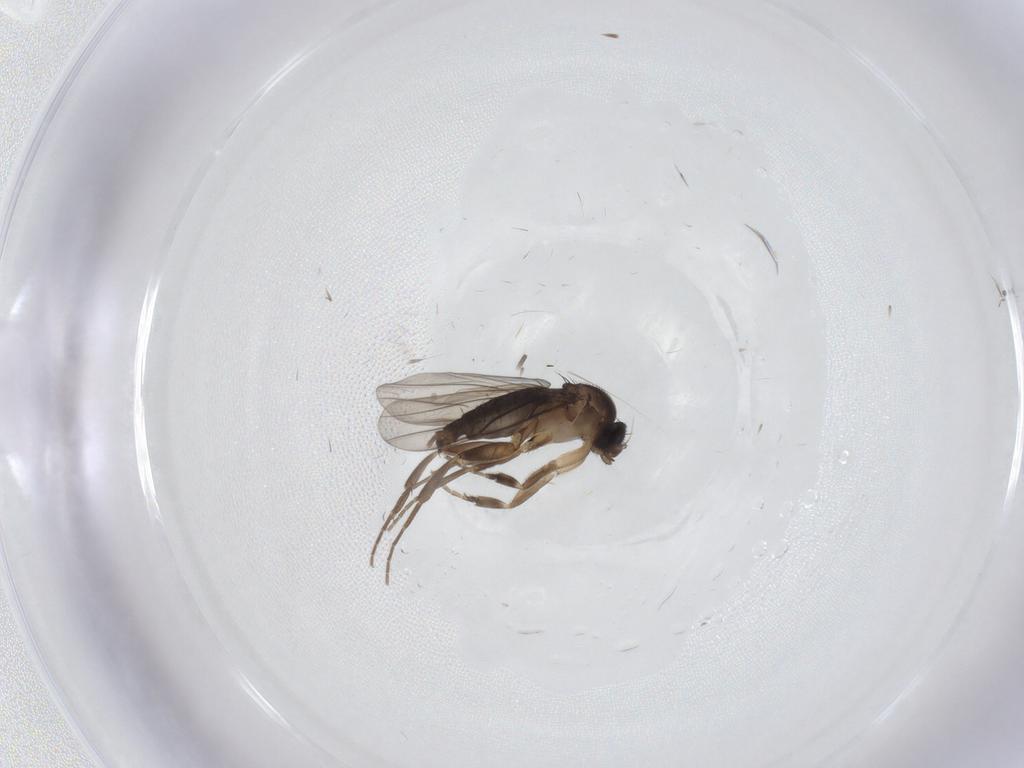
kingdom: Animalia
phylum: Arthropoda
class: Insecta
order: Diptera
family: Phoridae
